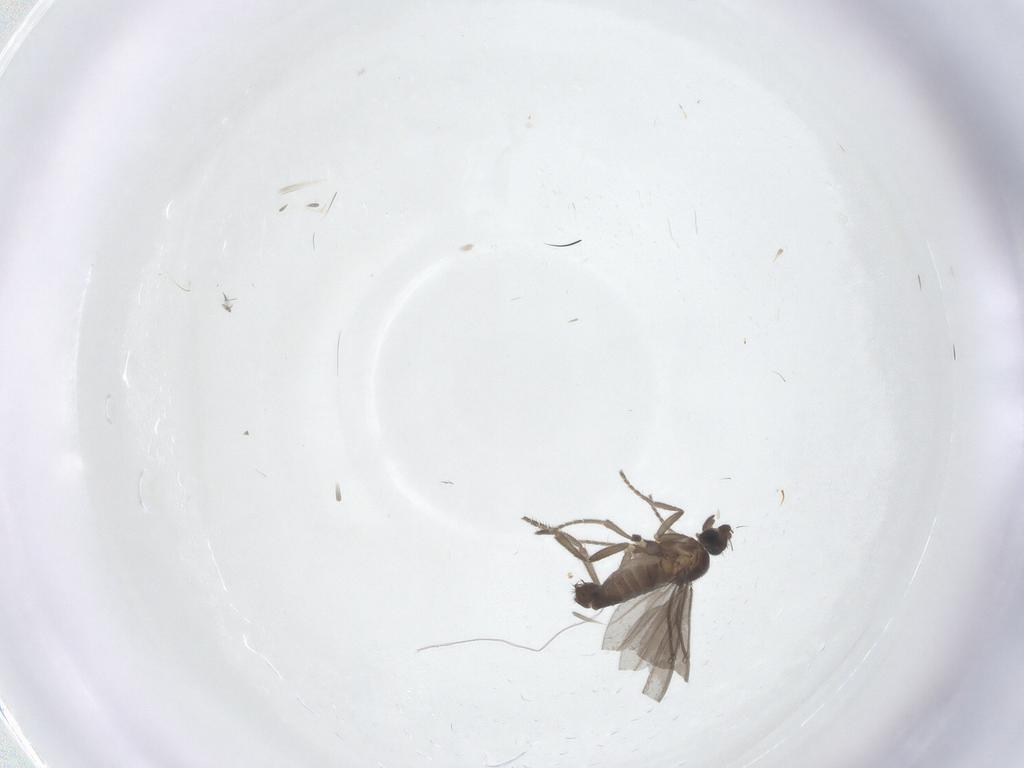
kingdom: Animalia
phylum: Arthropoda
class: Insecta
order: Diptera
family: Phoridae
